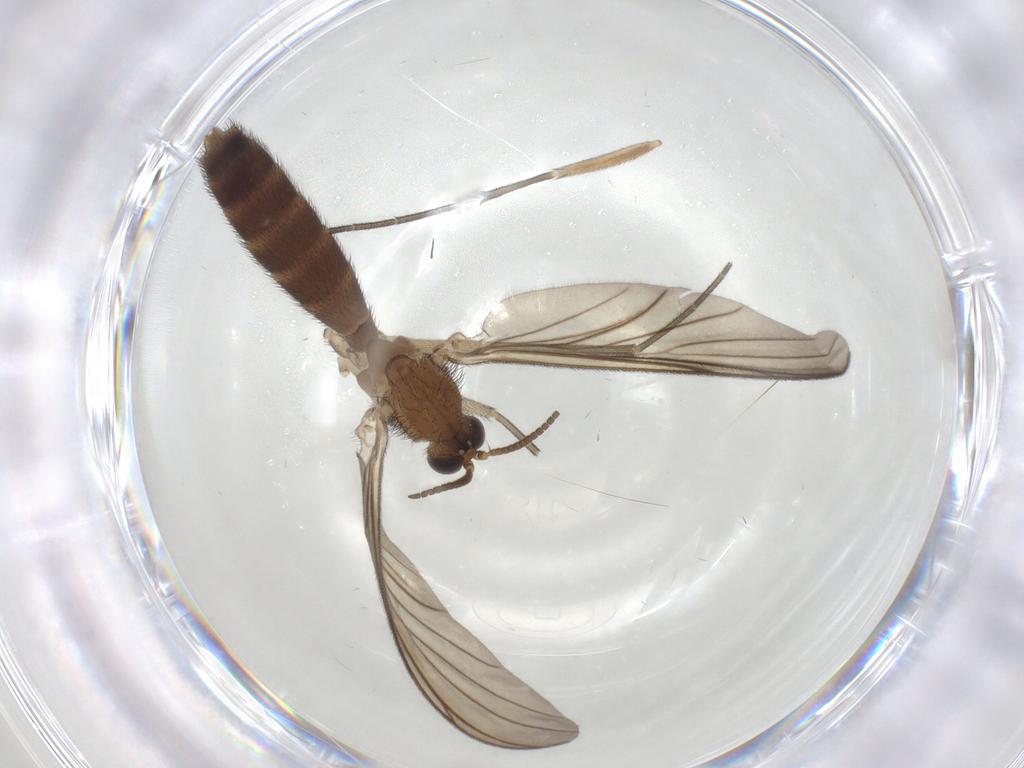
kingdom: Animalia
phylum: Arthropoda
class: Insecta
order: Diptera
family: Keroplatidae
